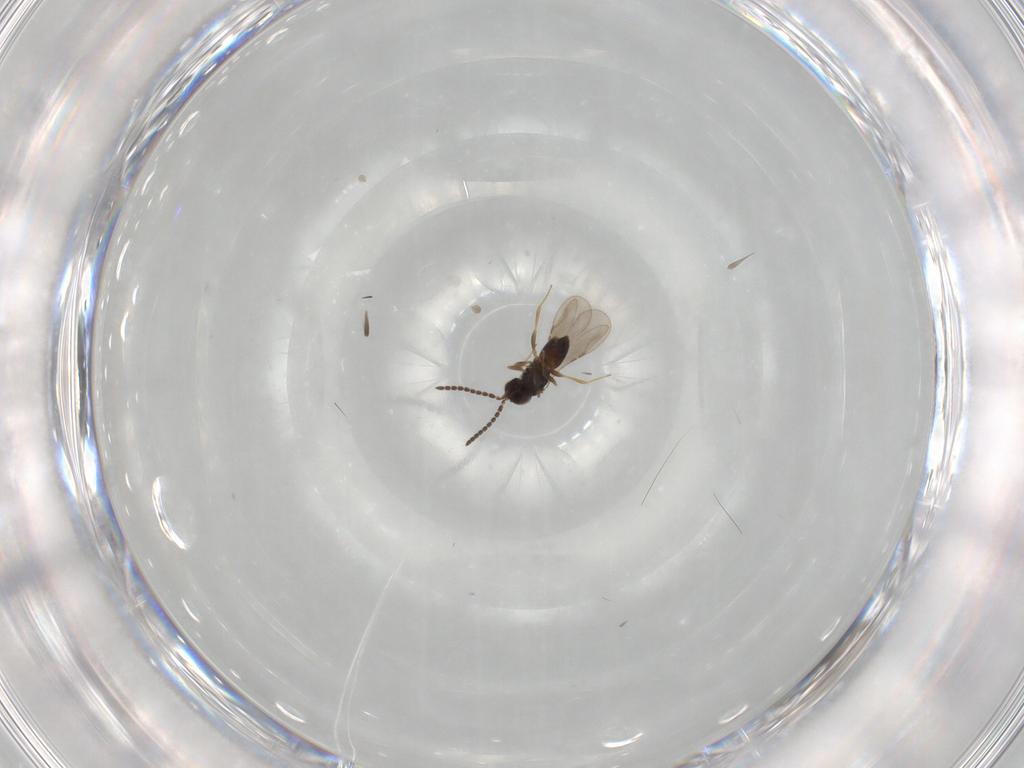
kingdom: Animalia
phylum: Arthropoda
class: Insecta
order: Hymenoptera
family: Ceraphronidae
